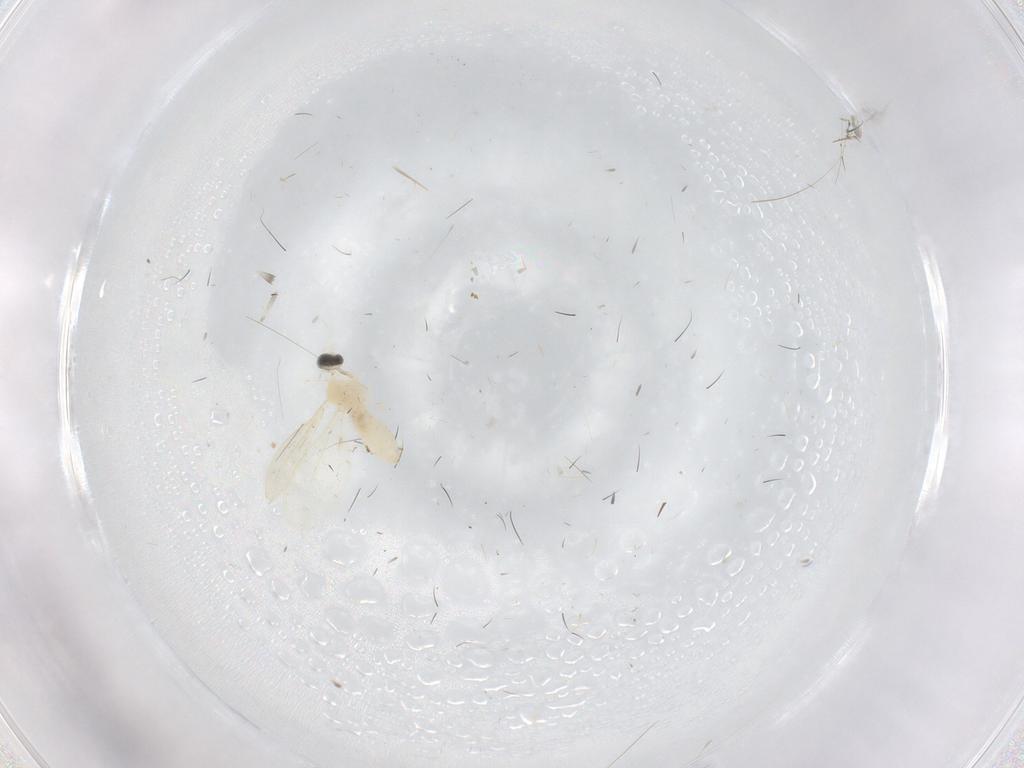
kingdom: Animalia
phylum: Arthropoda
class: Insecta
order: Diptera
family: Cecidomyiidae
